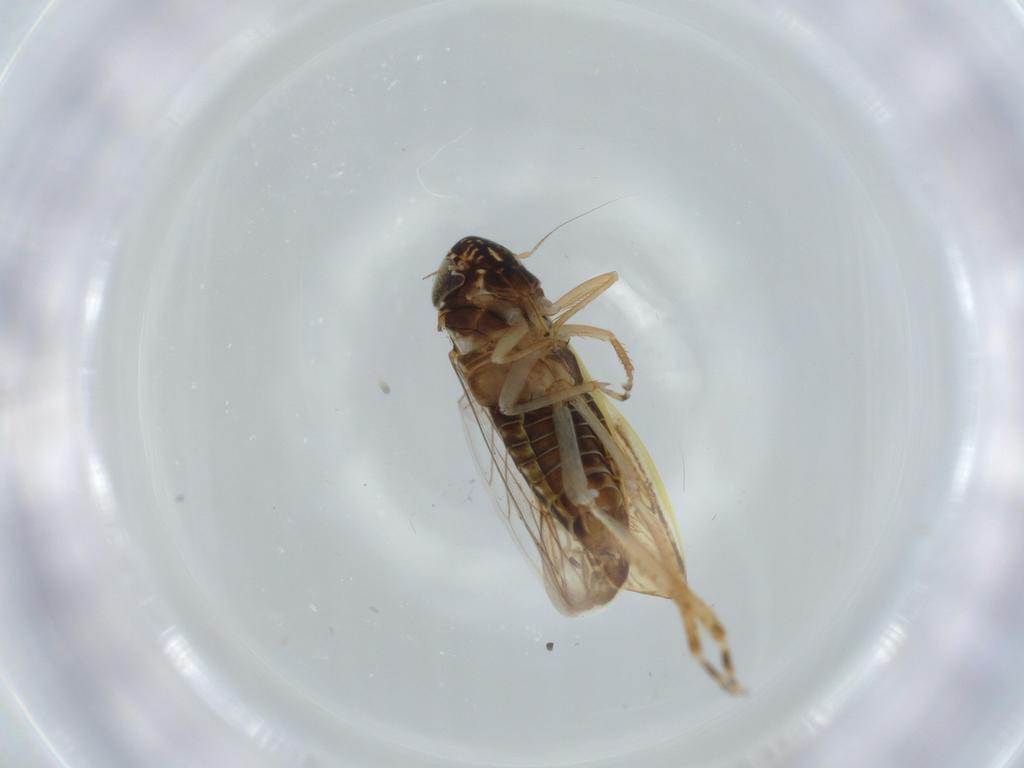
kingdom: Animalia
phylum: Arthropoda
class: Insecta
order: Hemiptera
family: Cicadellidae
